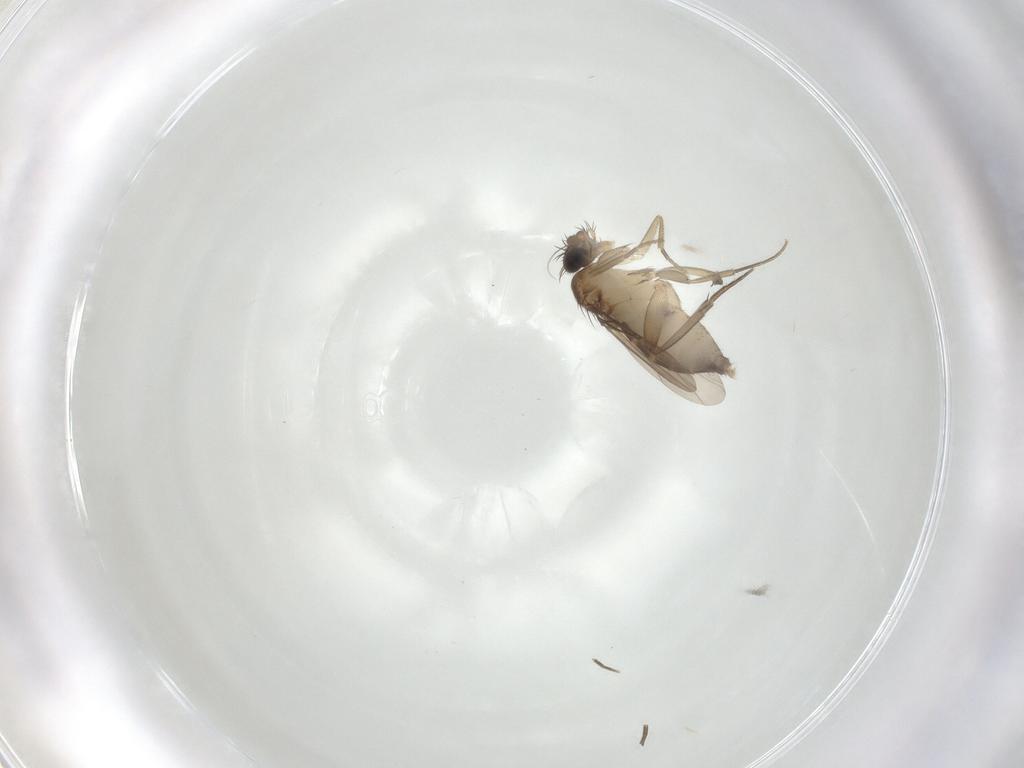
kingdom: Animalia
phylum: Arthropoda
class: Insecta
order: Diptera
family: Phoridae
